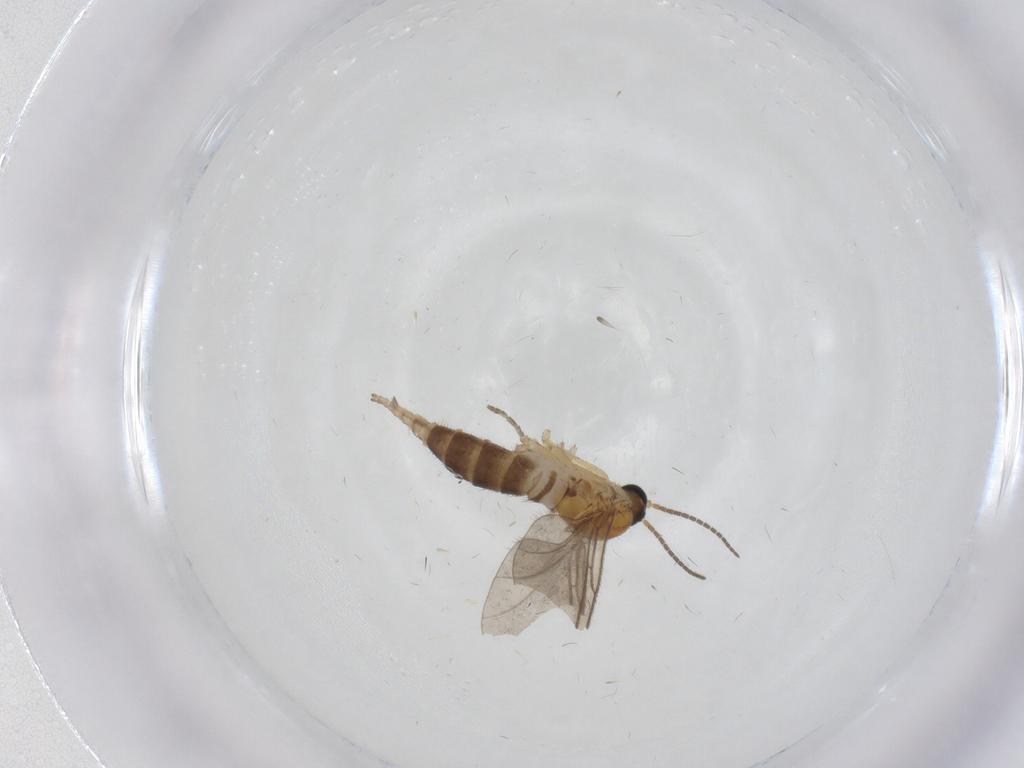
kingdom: Animalia
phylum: Arthropoda
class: Insecta
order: Diptera
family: Sciaridae
